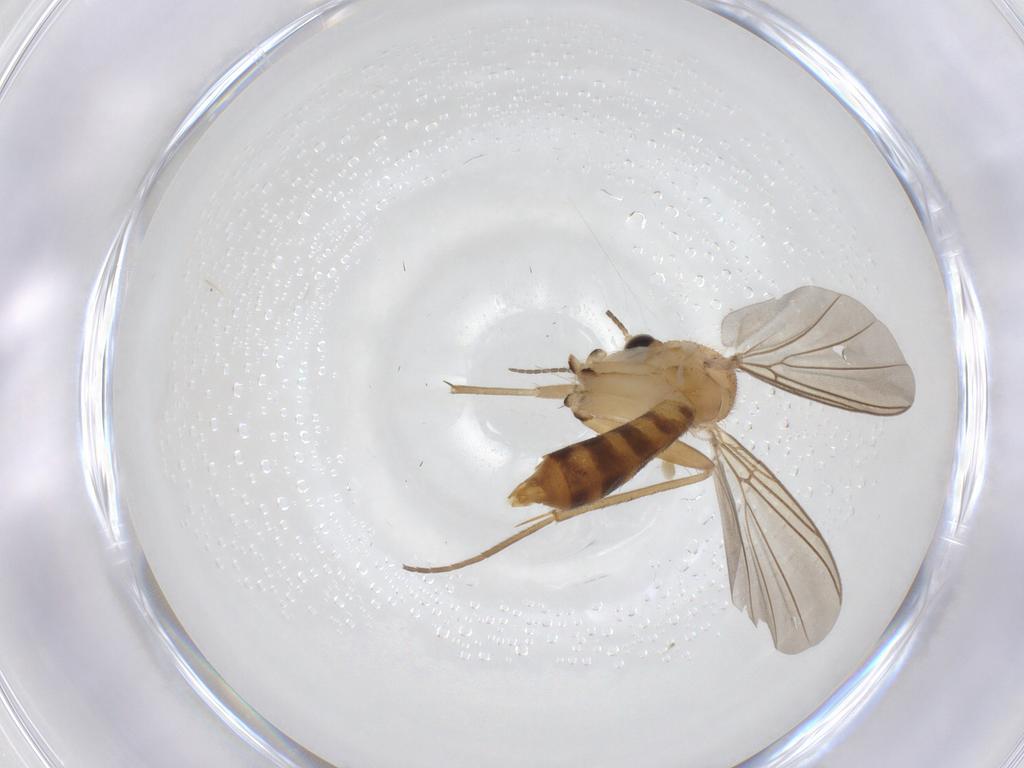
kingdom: Animalia
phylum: Arthropoda
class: Insecta
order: Diptera
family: Mycetophilidae
